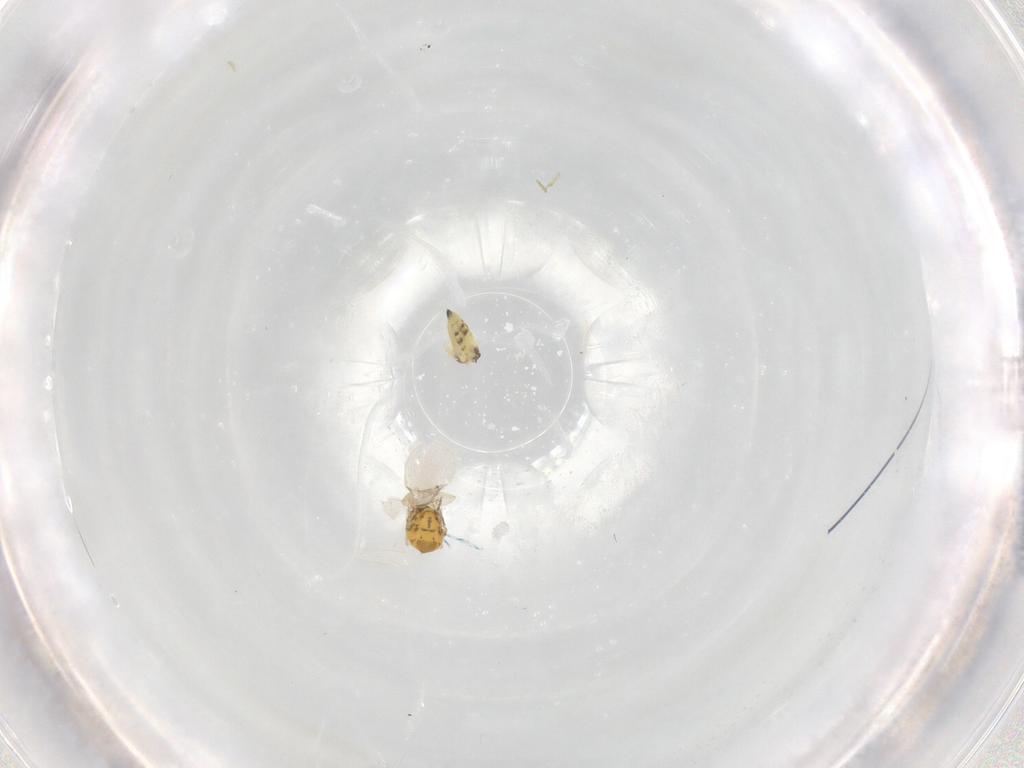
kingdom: Animalia
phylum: Arthropoda
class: Insecta
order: Hymenoptera
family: Eulophidae
